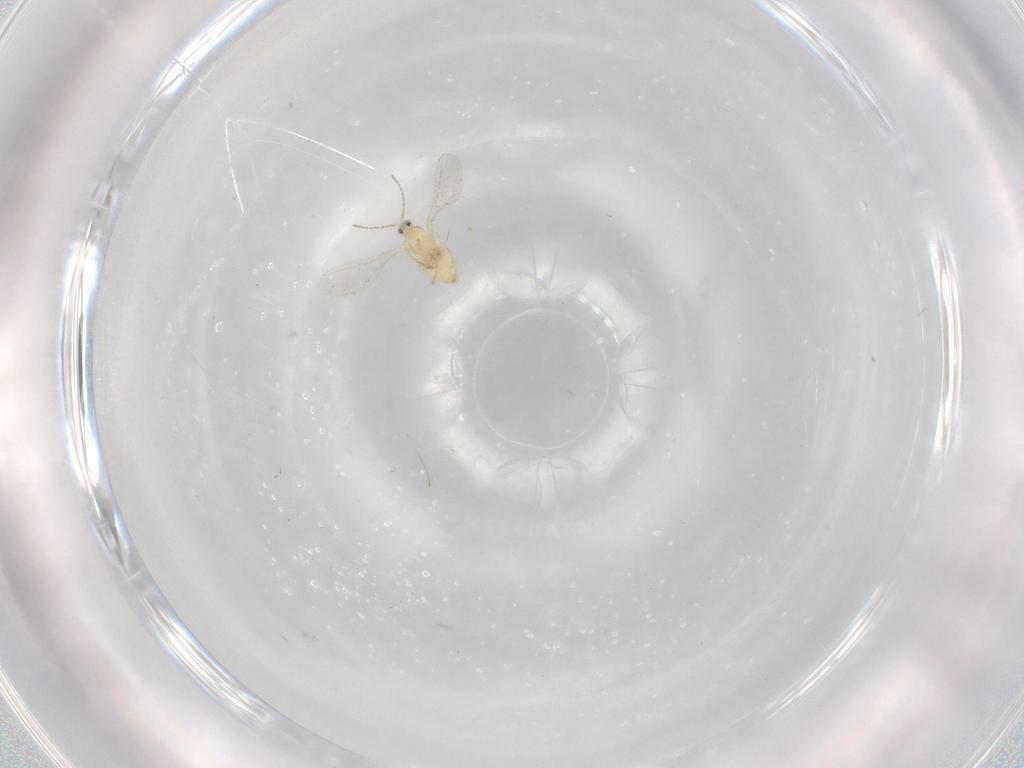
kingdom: Animalia
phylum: Arthropoda
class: Insecta
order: Diptera
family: Cecidomyiidae
